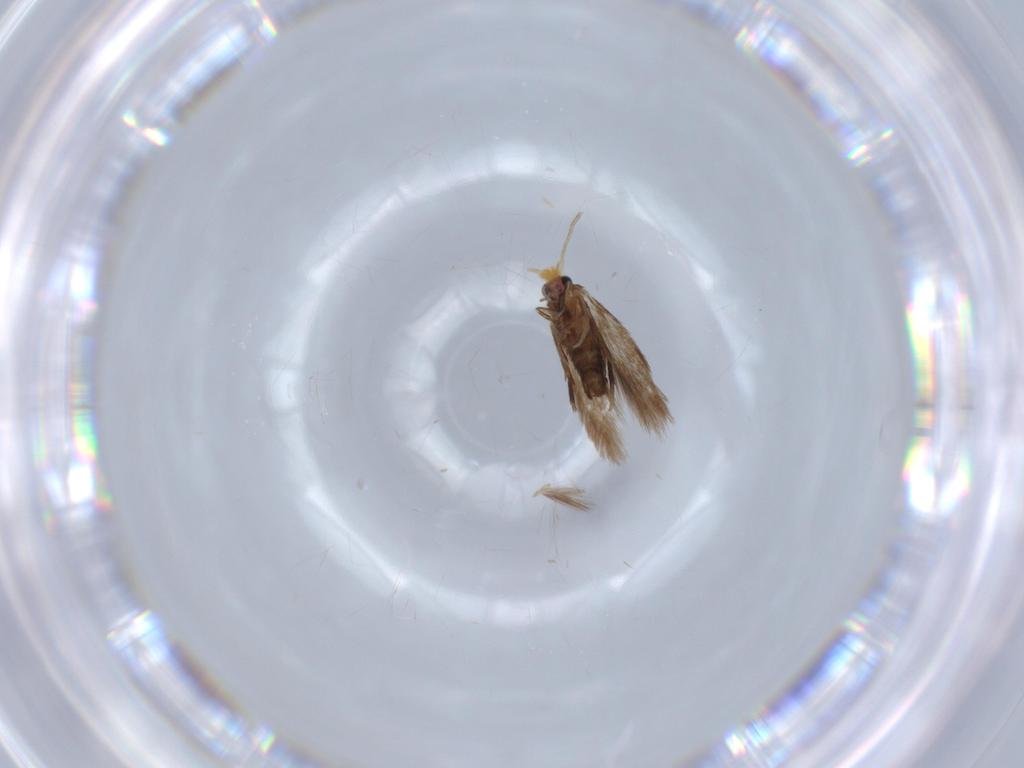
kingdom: Animalia
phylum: Arthropoda
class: Insecta
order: Lepidoptera
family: Nepticulidae
